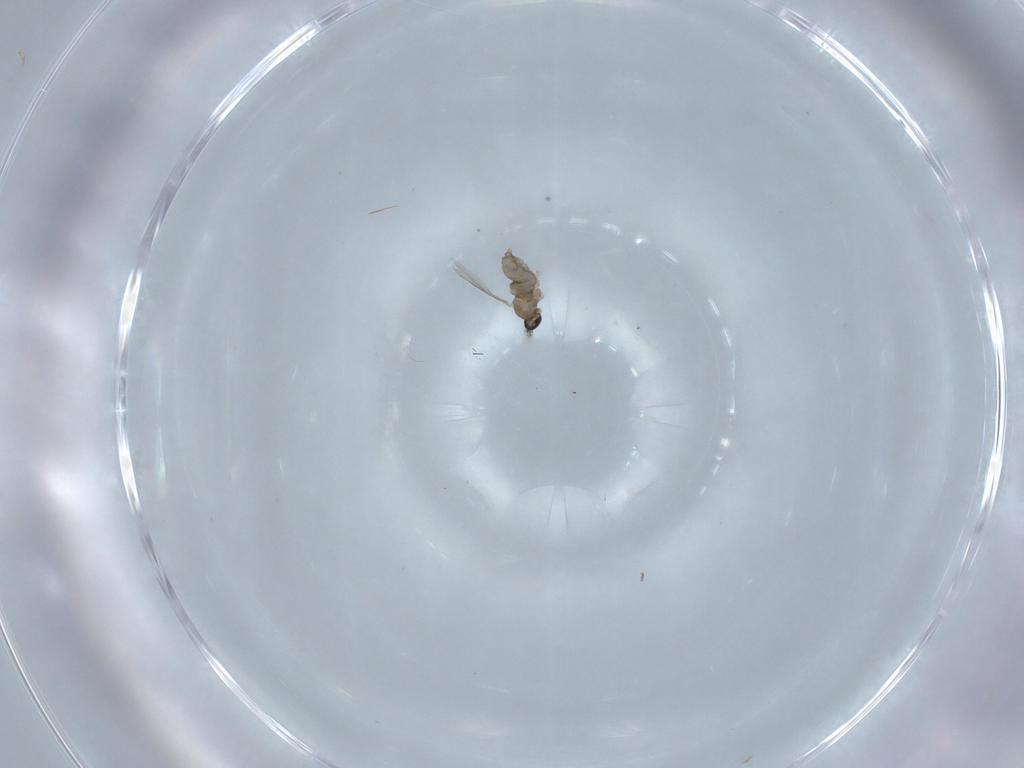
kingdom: Animalia
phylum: Arthropoda
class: Insecta
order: Diptera
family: Cecidomyiidae
